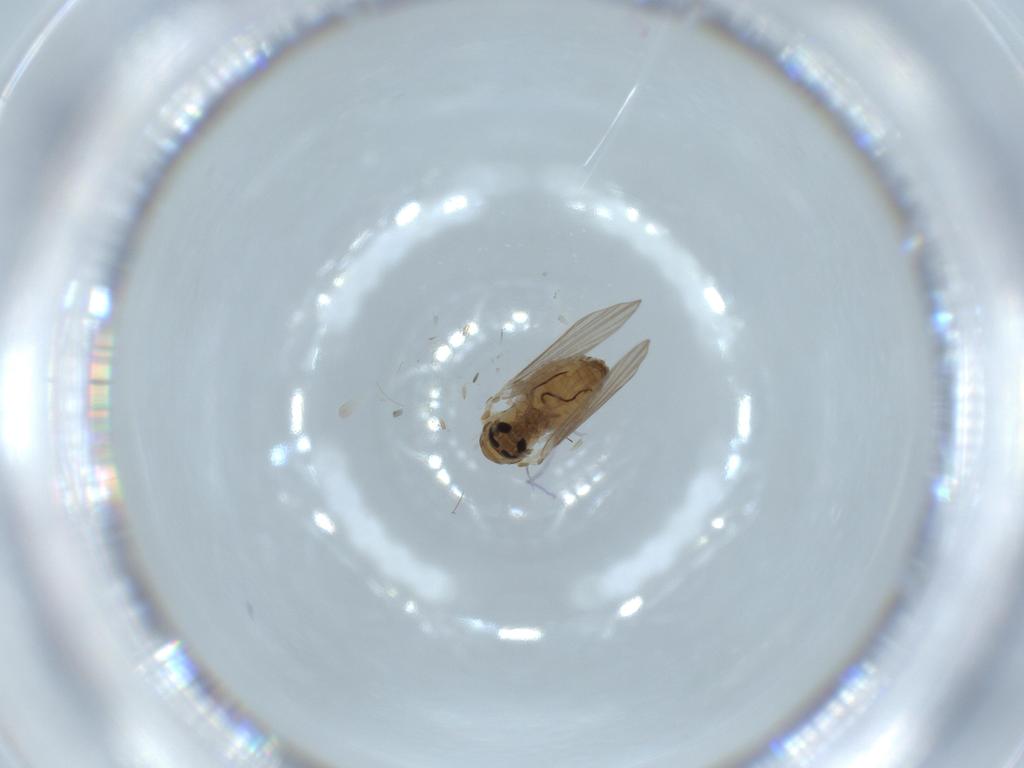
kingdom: Animalia
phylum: Arthropoda
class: Insecta
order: Diptera
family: Psychodidae
